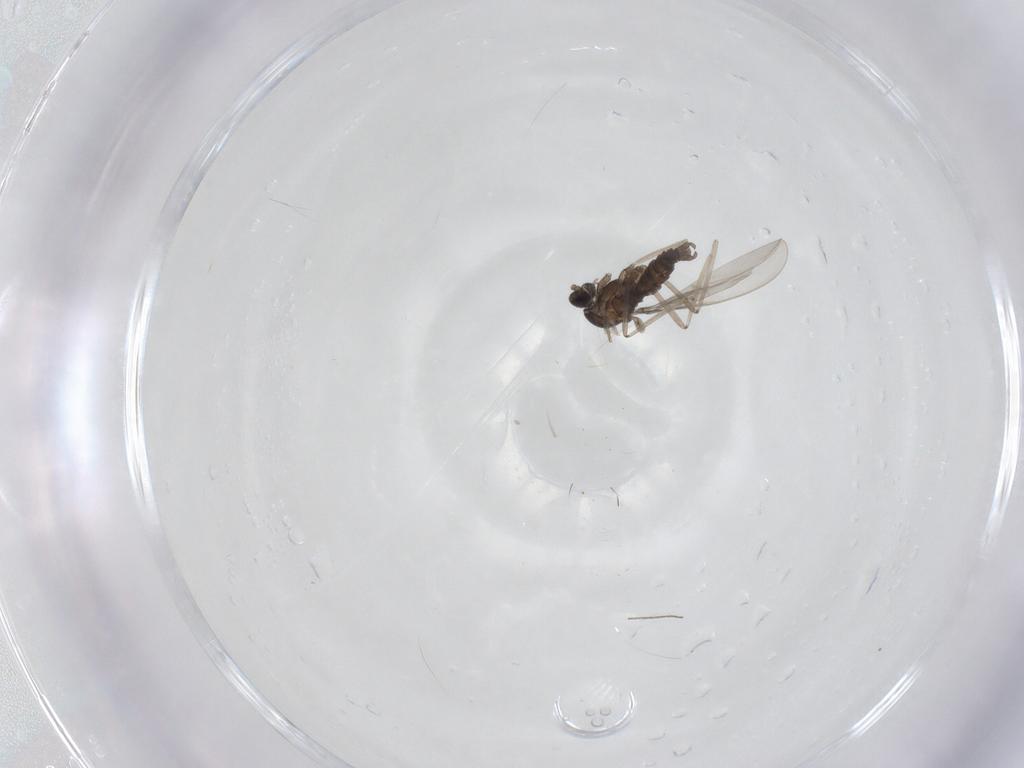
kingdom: Animalia
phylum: Arthropoda
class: Insecta
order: Diptera
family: Cecidomyiidae
